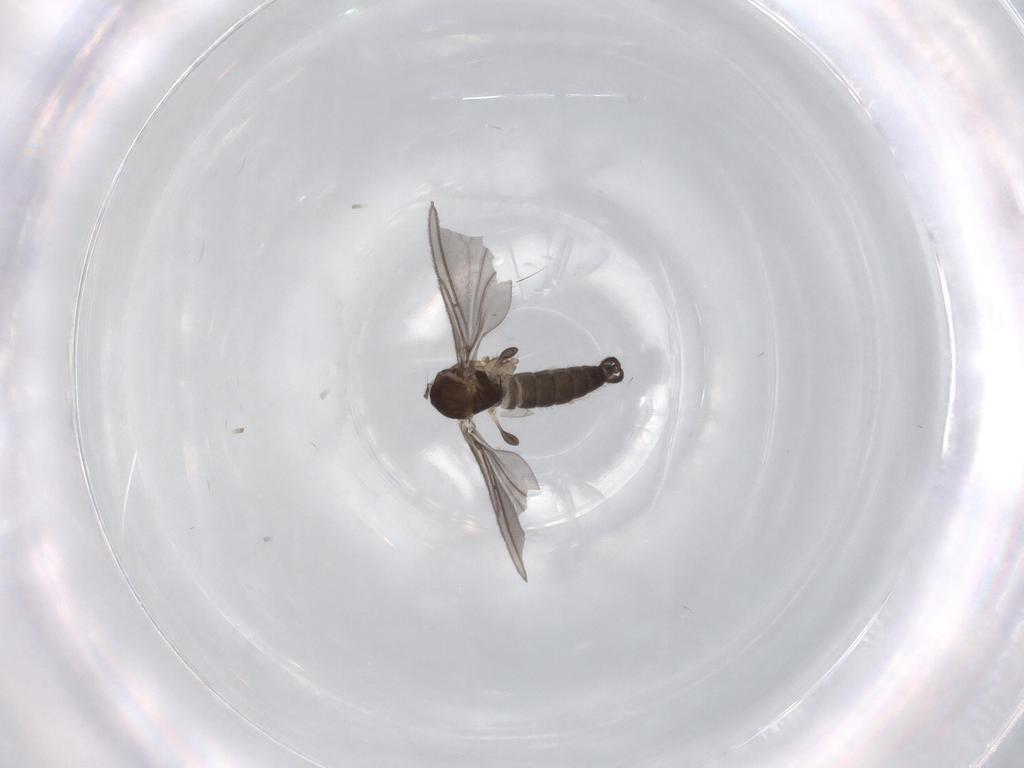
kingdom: Animalia
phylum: Arthropoda
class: Insecta
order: Diptera
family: Sciaridae
